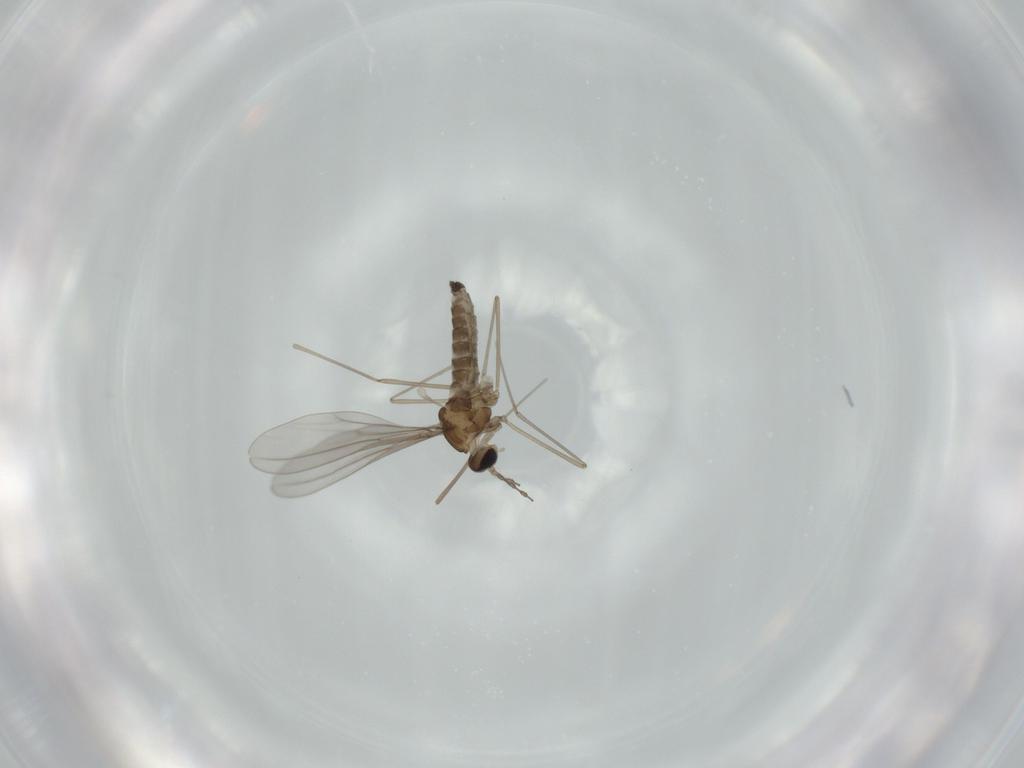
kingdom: Animalia
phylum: Arthropoda
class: Insecta
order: Diptera
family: Cecidomyiidae
